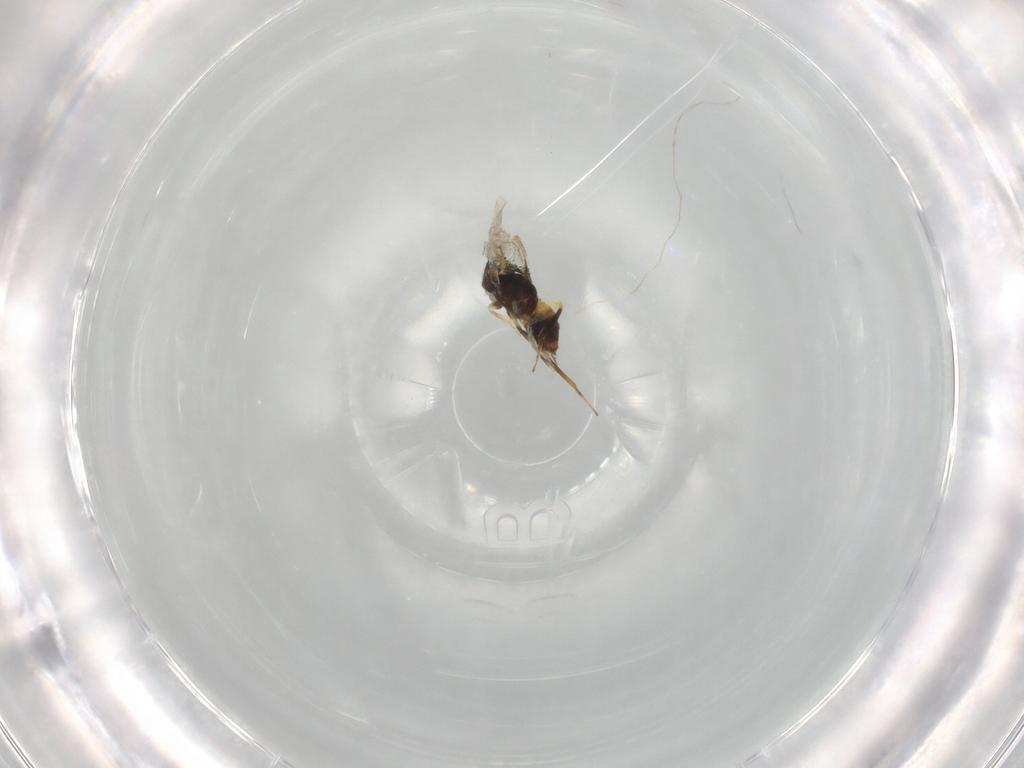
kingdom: Animalia
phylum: Arthropoda
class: Insecta
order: Hymenoptera
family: Aphelinidae
